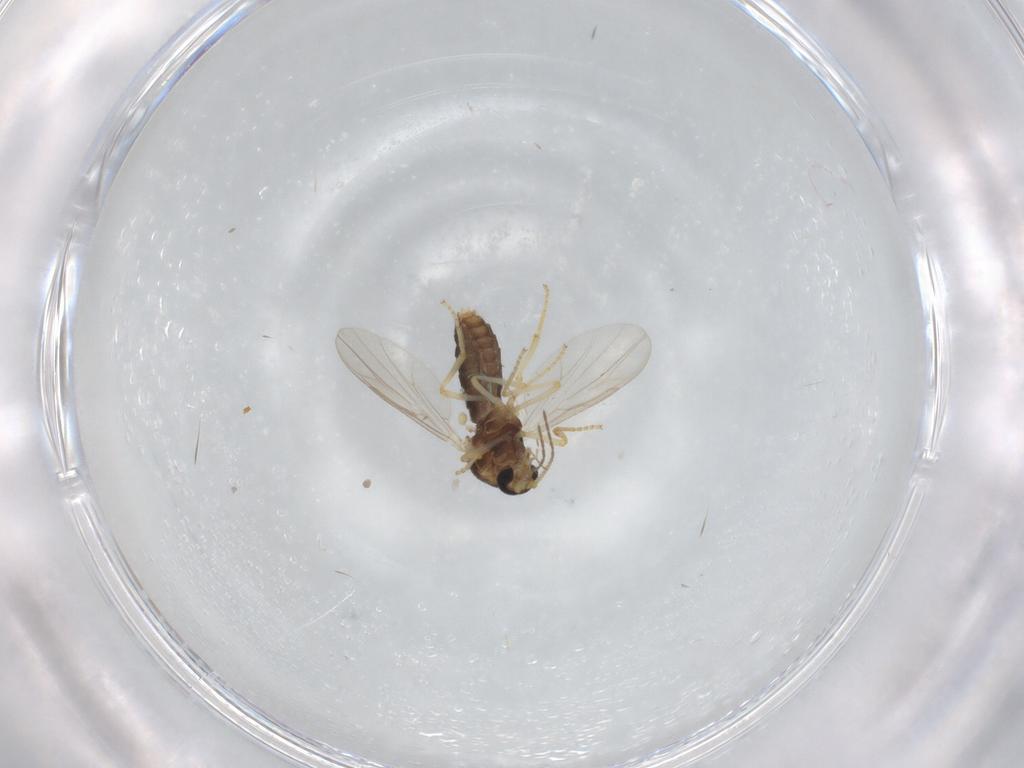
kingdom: Animalia
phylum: Arthropoda
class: Insecta
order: Diptera
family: Ceratopogonidae
